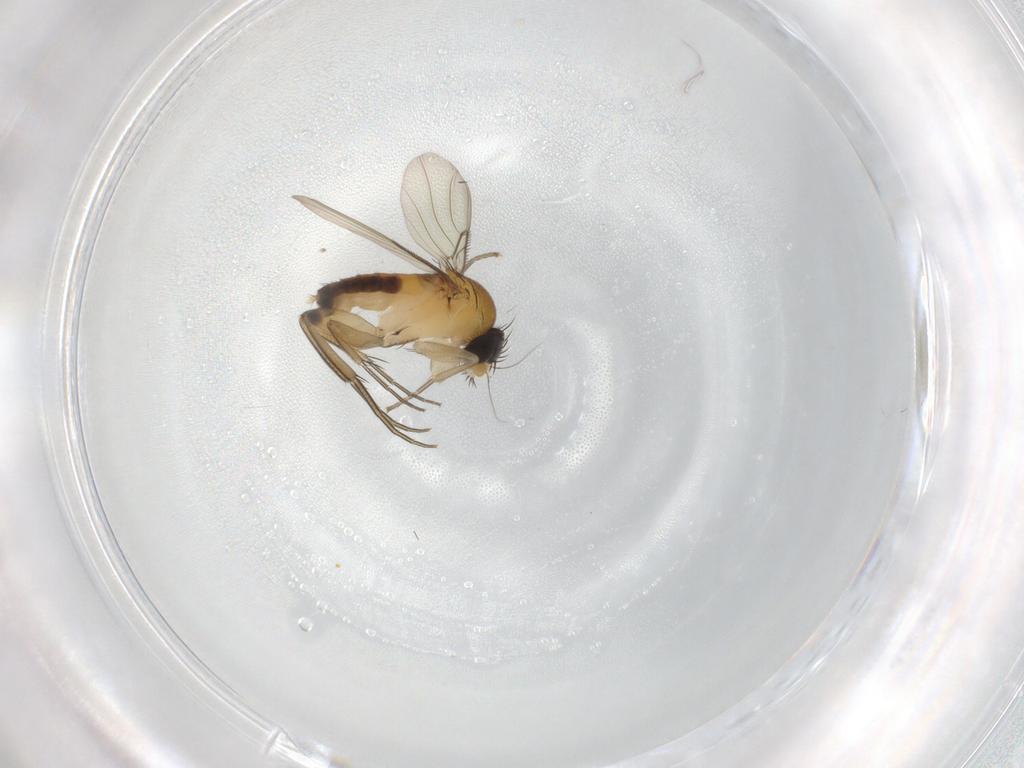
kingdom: Animalia
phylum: Arthropoda
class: Insecta
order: Diptera
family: Phoridae
